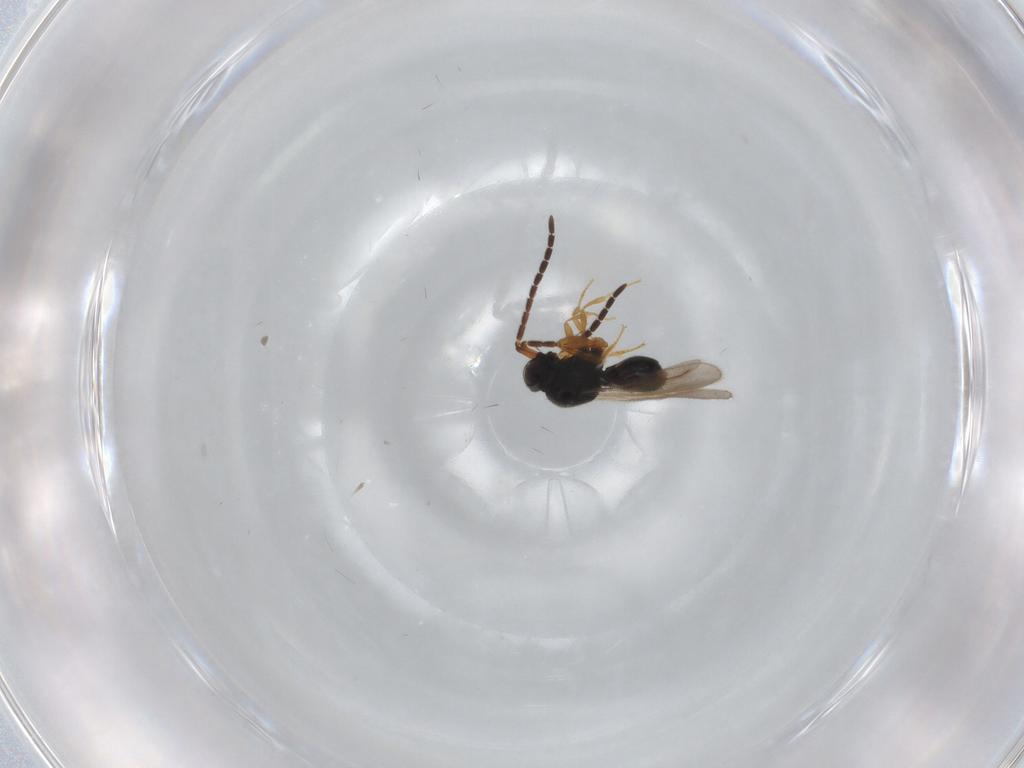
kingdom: Animalia
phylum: Arthropoda
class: Insecta
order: Hymenoptera
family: Formicidae
